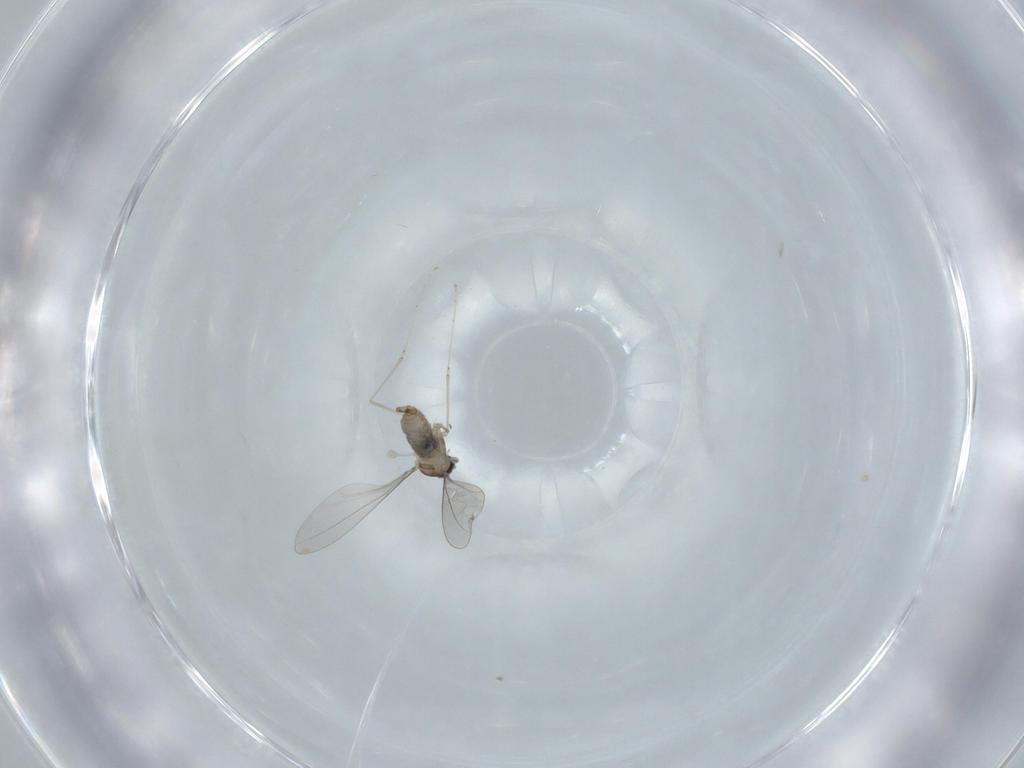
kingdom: Animalia
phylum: Arthropoda
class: Insecta
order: Diptera
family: Cecidomyiidae
